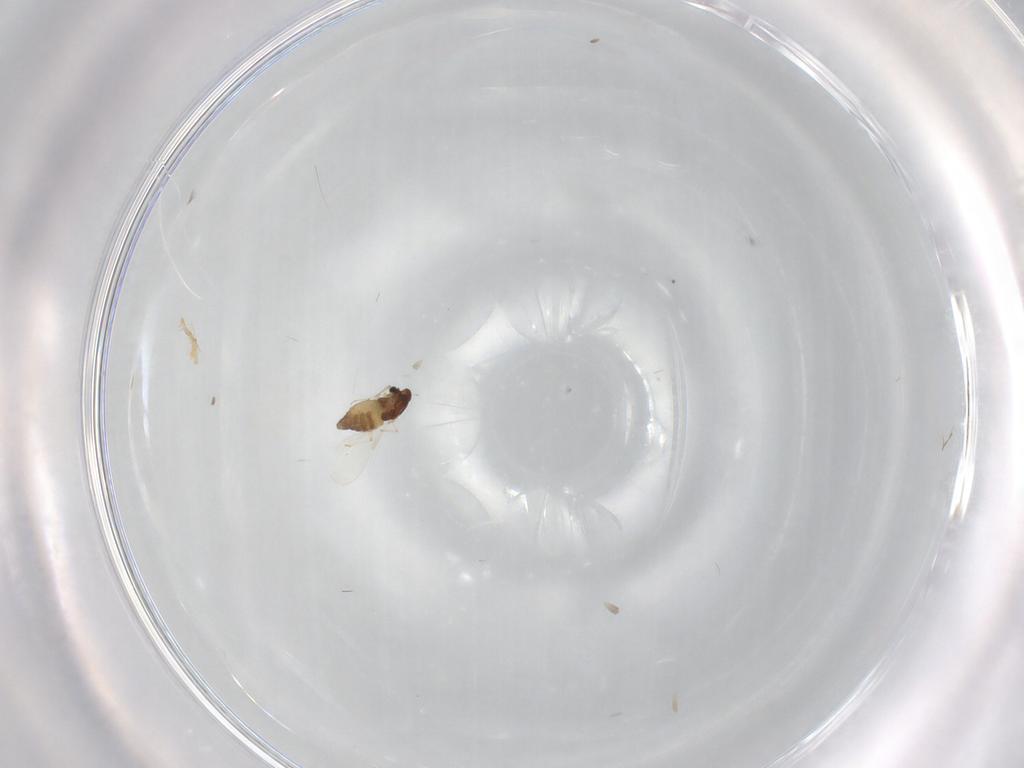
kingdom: Animalia
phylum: Arthropoda
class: Insecta
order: Diptera
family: Chironomidae
